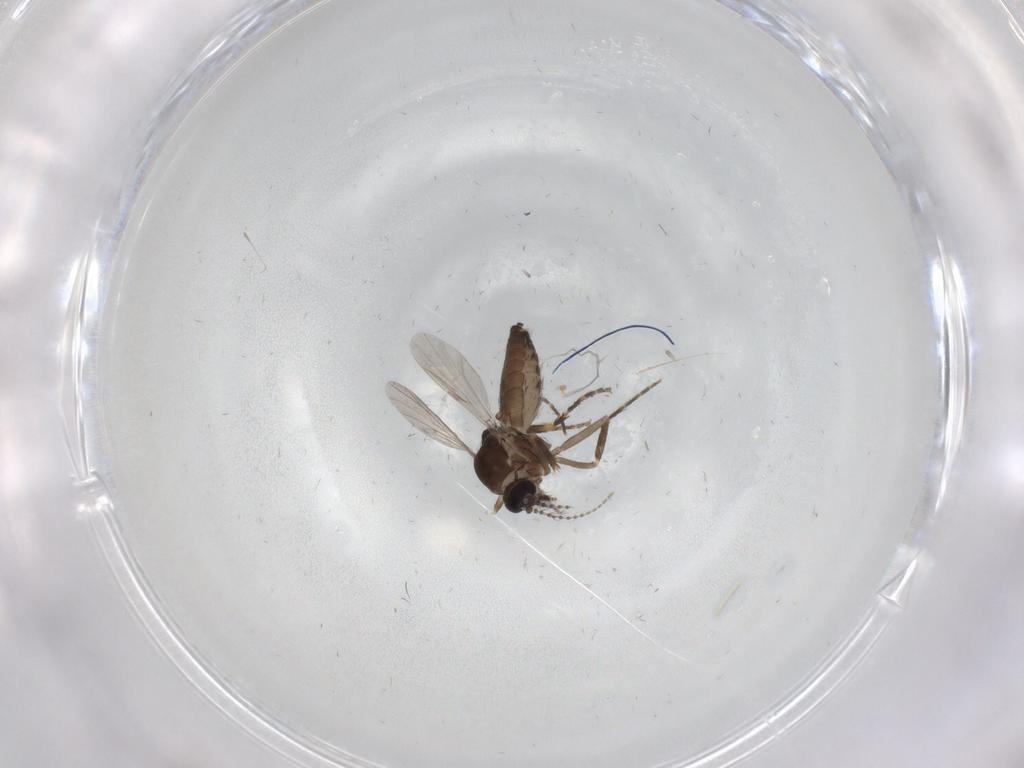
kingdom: Animalia
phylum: Arthropoda
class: Insecta
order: Diptera
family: Ceratopogonidae
